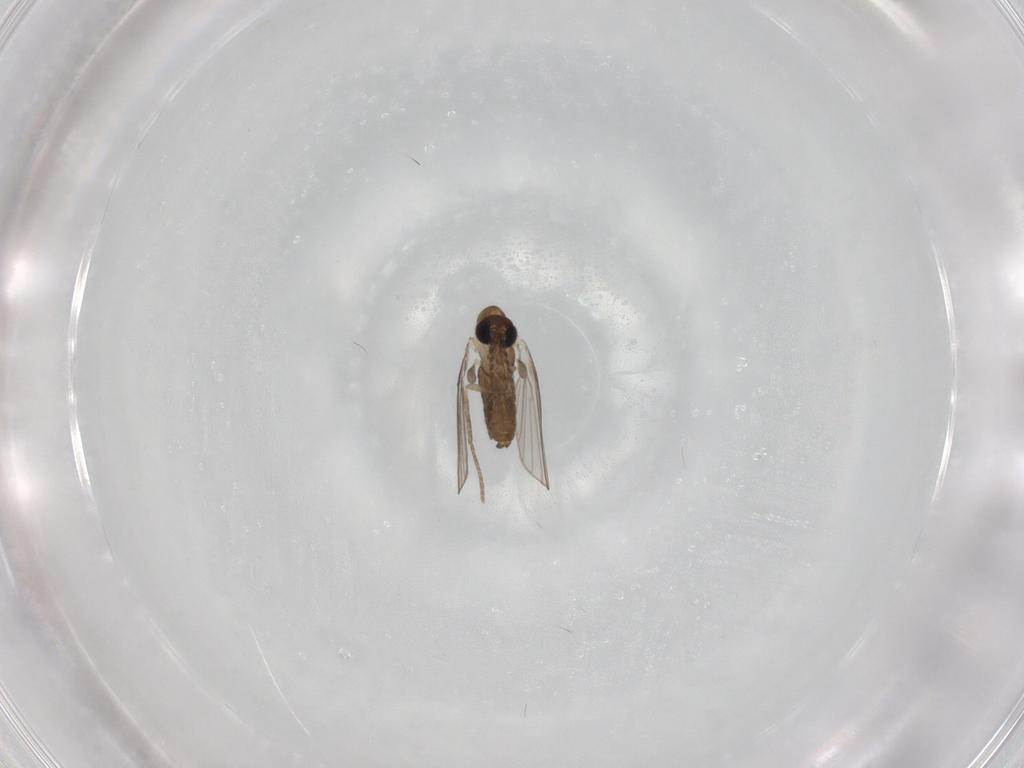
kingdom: Animalia
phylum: Arthropoda
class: Insecta
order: Diptera
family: Psychodidae
